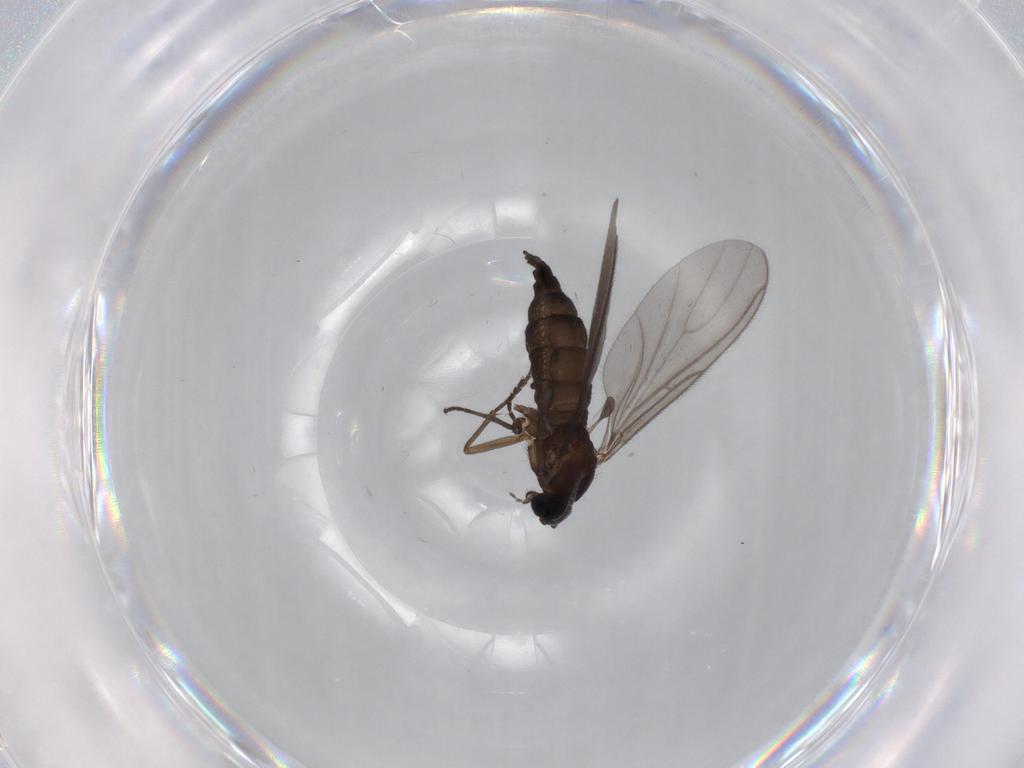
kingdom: Animalia
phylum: Arthropoda
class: Insecta
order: Diptera
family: Sciaridae
